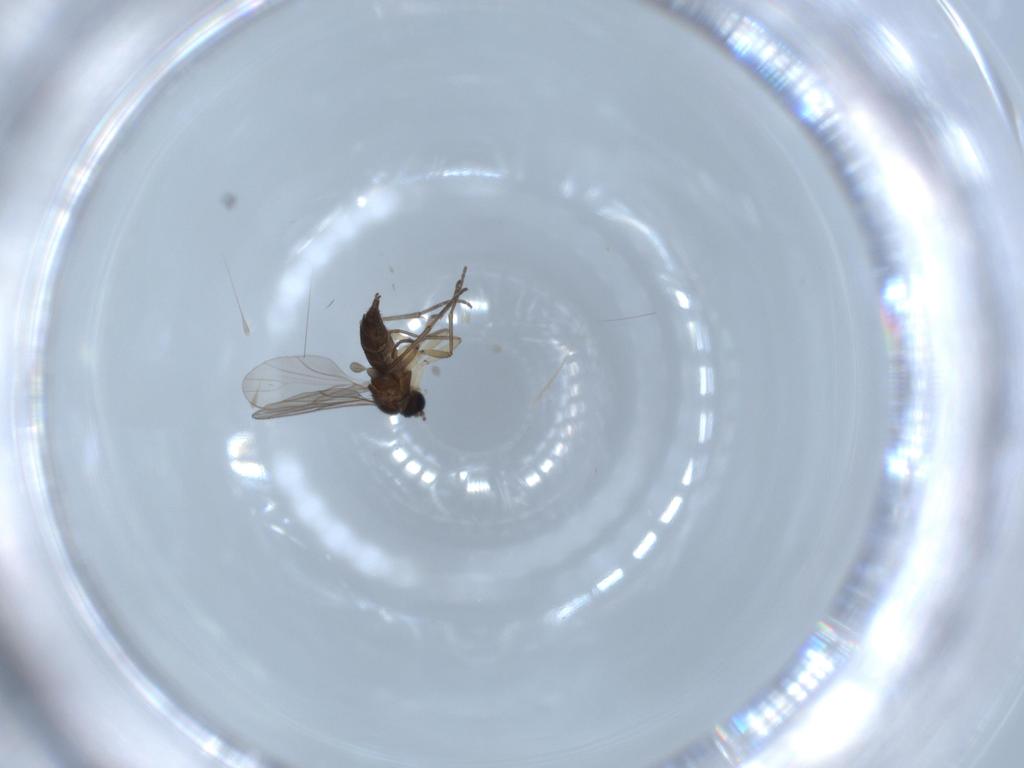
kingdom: Animalia
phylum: Arthropoda
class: Insecta
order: Diptera
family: Sciaridae
